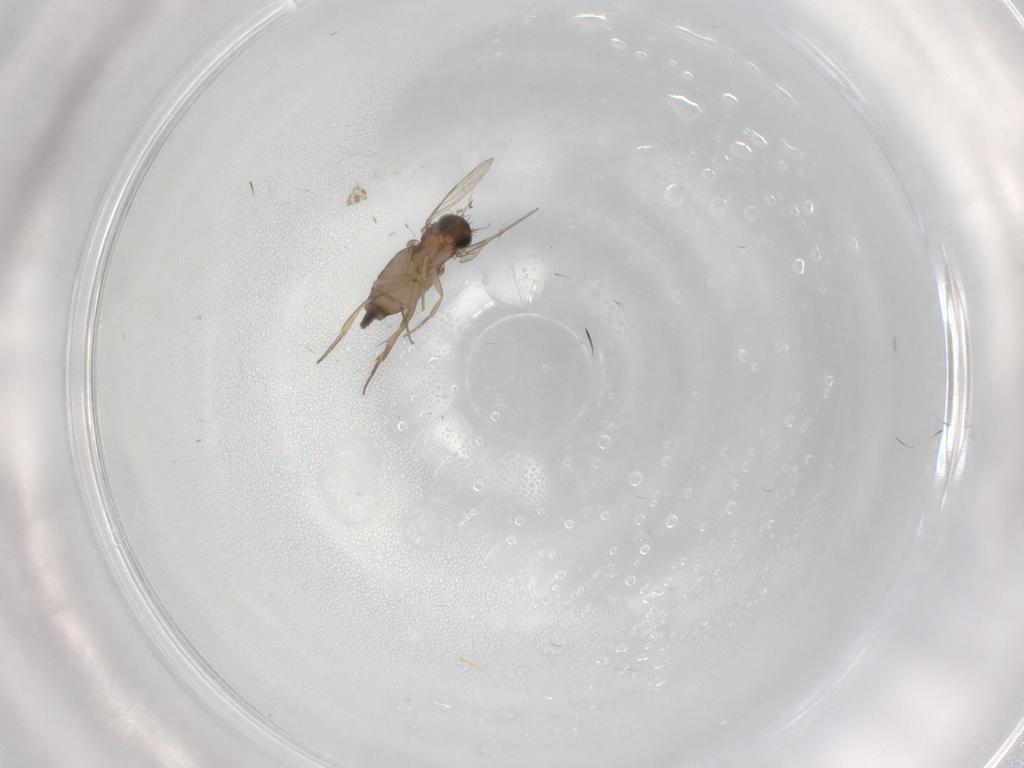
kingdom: Animalia
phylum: Arthropoda
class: Insecta
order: Diptera
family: Phoridae
